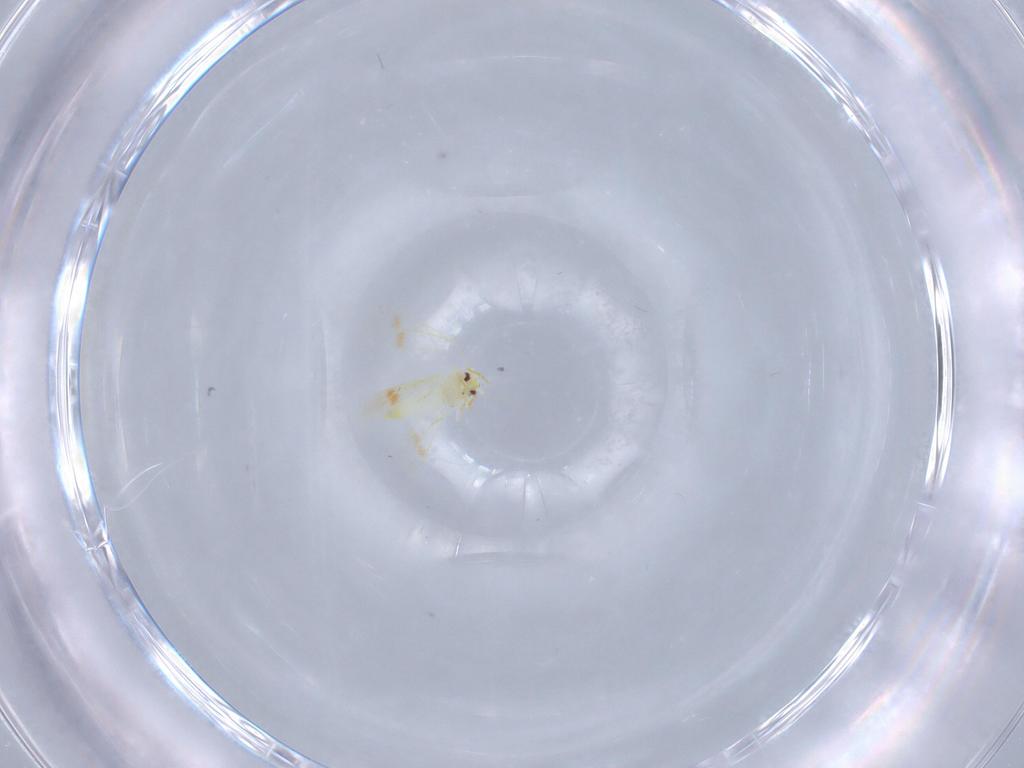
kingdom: Animalia
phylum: Arthropoda
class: Insecta
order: Hemiptera
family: Aleyrodidae
